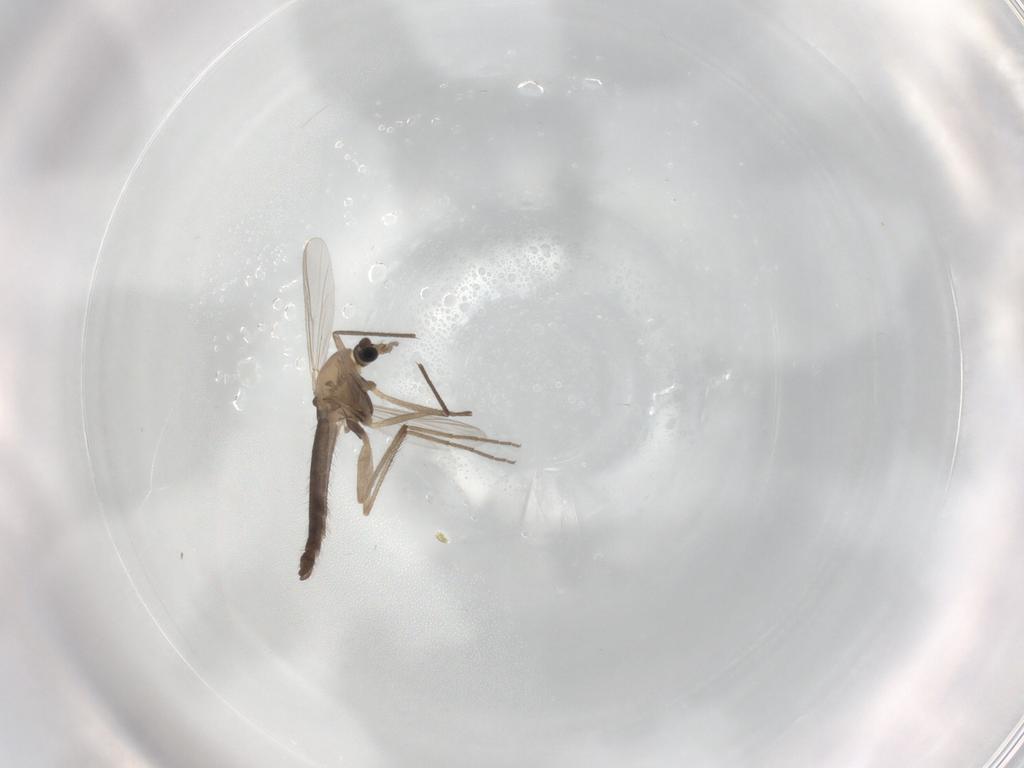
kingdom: Animalia
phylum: Arthropoda
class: Insecta
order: Diptera
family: Chironomidae
